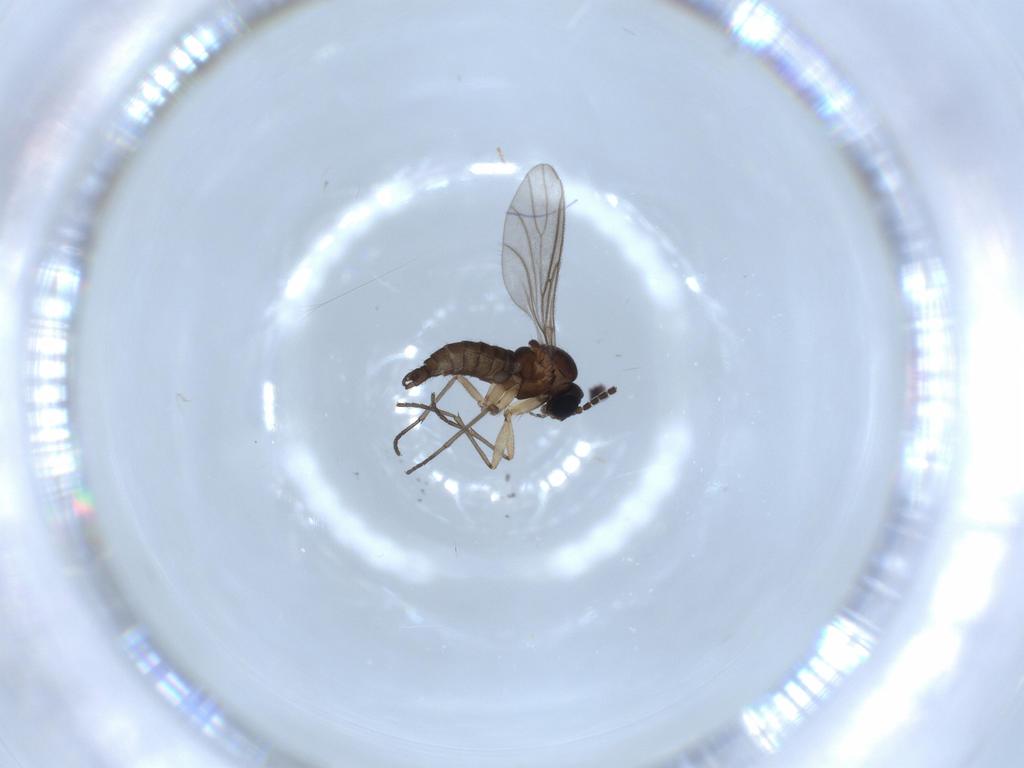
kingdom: Animalia
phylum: Arthropoda
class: Insecta
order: Diptera
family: Sciaridae
